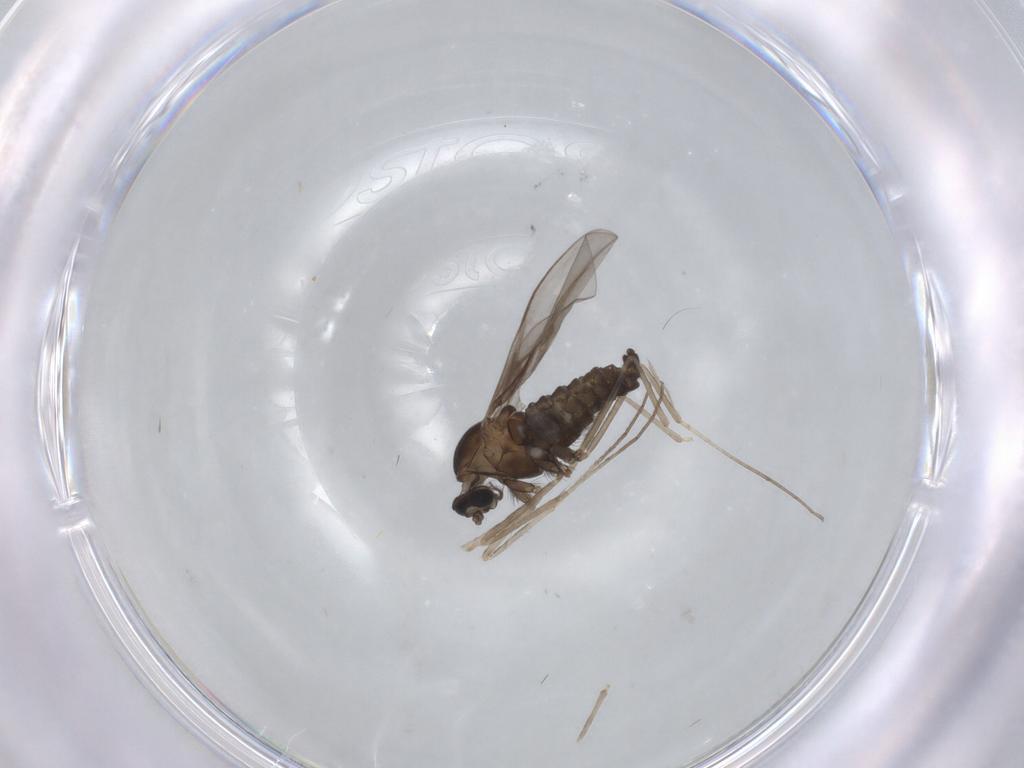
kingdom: Animalia
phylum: Arthropoda
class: Insecta
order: Diptera
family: Cecidomyiidae
